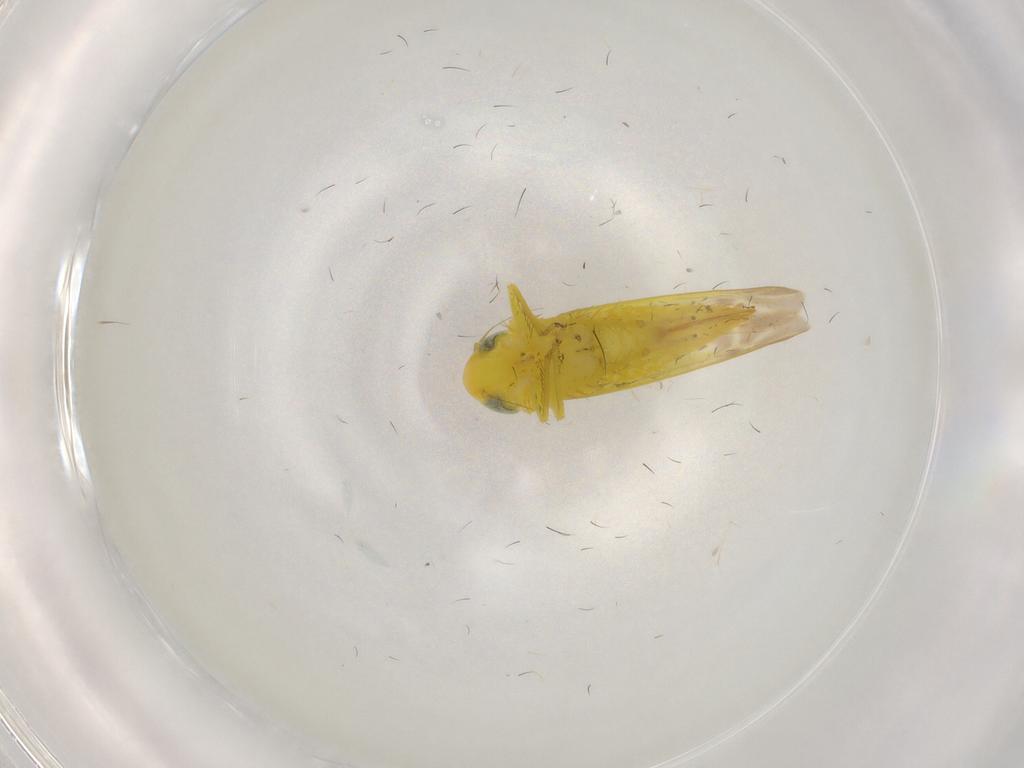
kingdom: Animalia
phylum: Arthropoda
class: Insecta
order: Hemiptera
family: Cicadellidae
